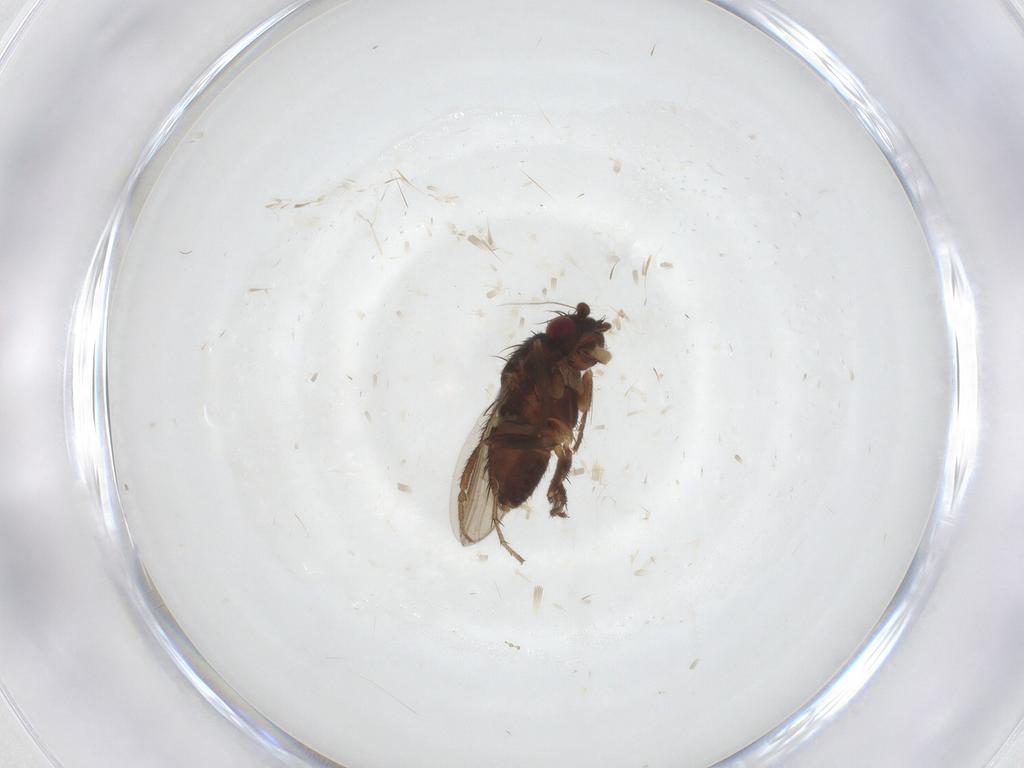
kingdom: Animalia
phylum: Arthropoda
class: Insecta
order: Diptera
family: Cecidomyiidae
